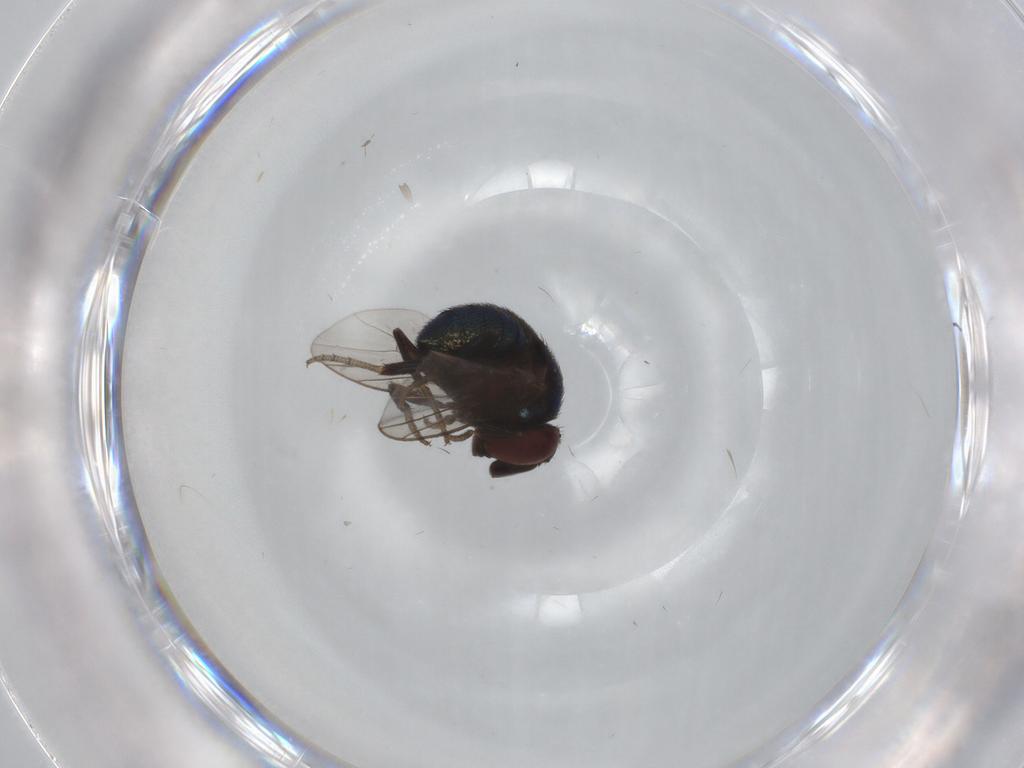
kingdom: Animalia
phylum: Arthropoda
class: Insecta
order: Diptera
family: Cryptochetidae
